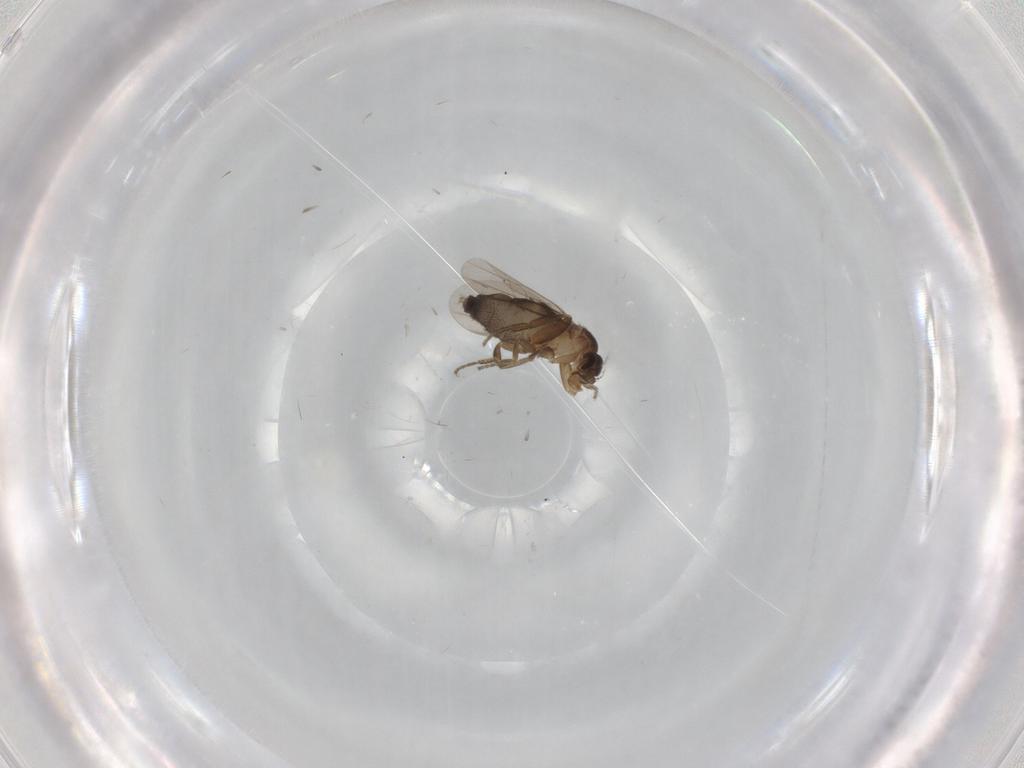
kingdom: Animalia
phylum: Arthropoda
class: Insecta
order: Diptera
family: Phoridae
